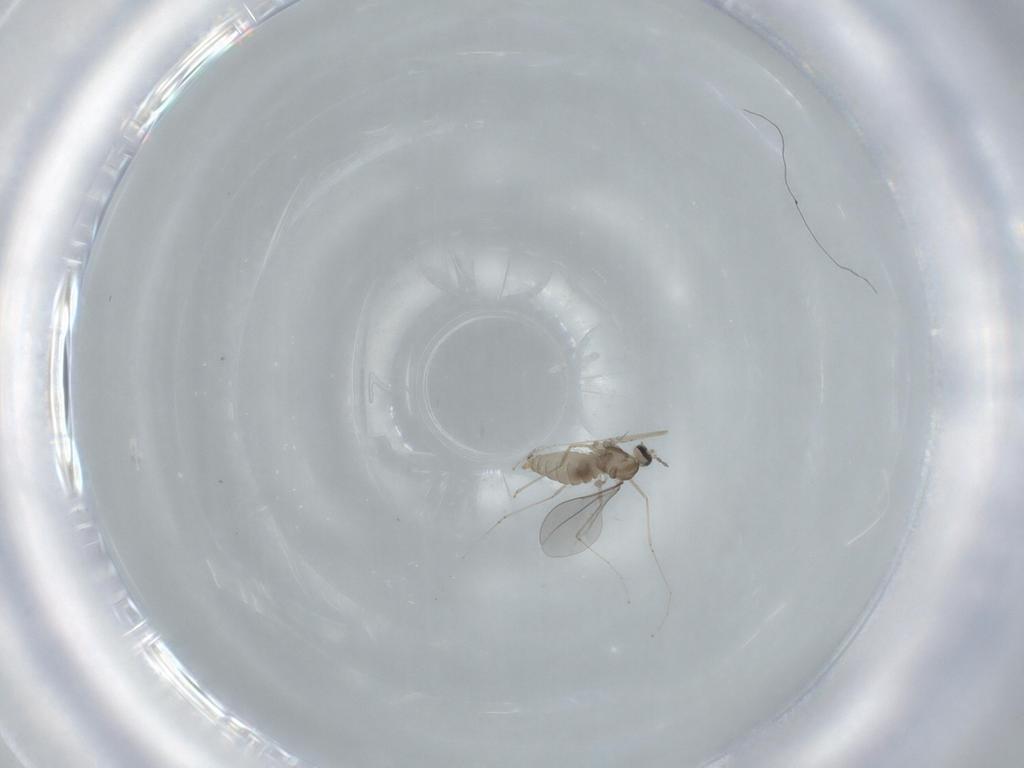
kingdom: Animalia
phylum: Arthropoda
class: Insecta
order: Diptera
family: Cecidomyiidae
